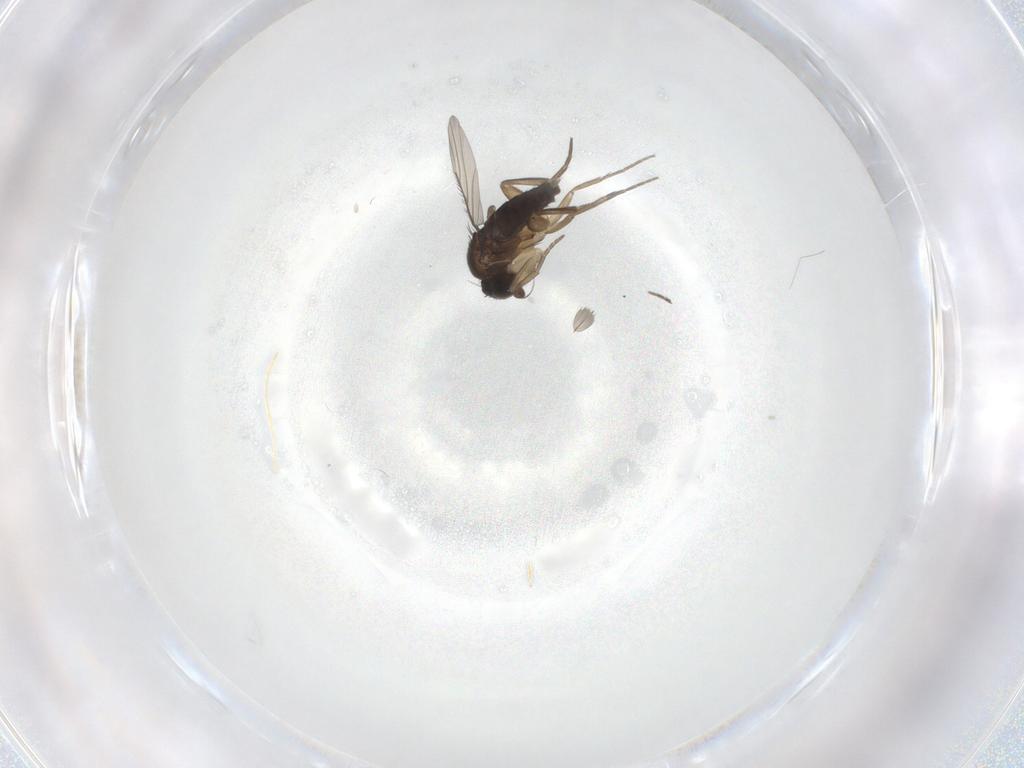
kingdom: Animalia
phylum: Arthropoda
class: Insecta
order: Diptera
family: Phoridae
